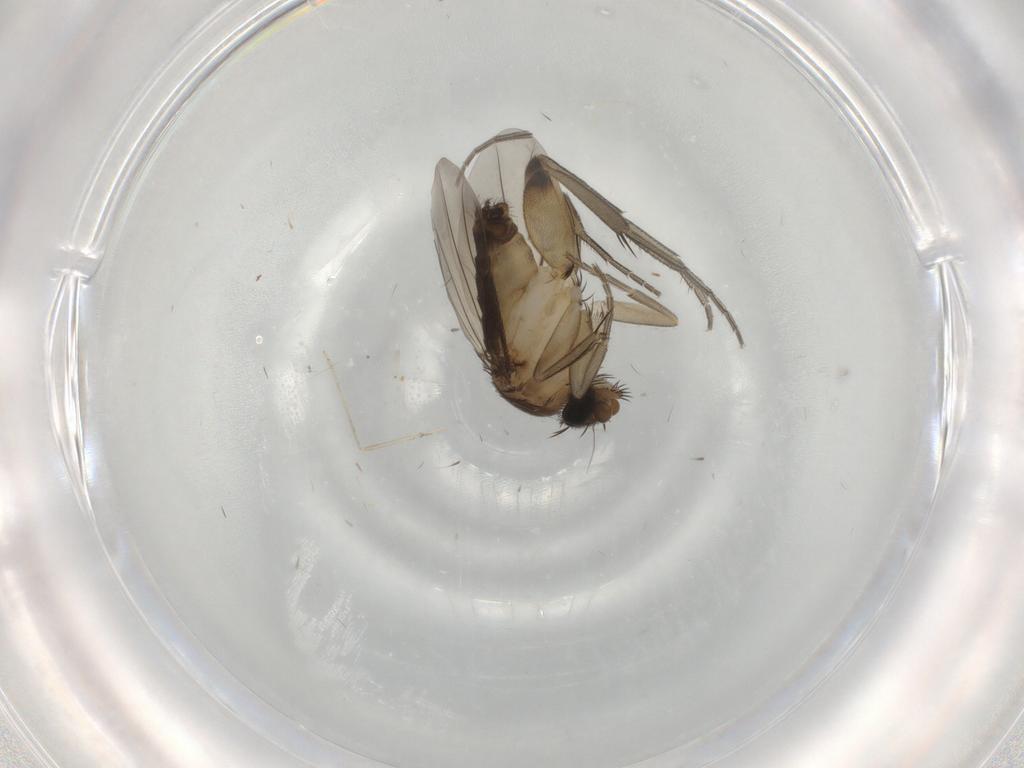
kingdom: Animalia
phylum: Arthropoda
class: Insecta
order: Diptera
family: Phoridae
